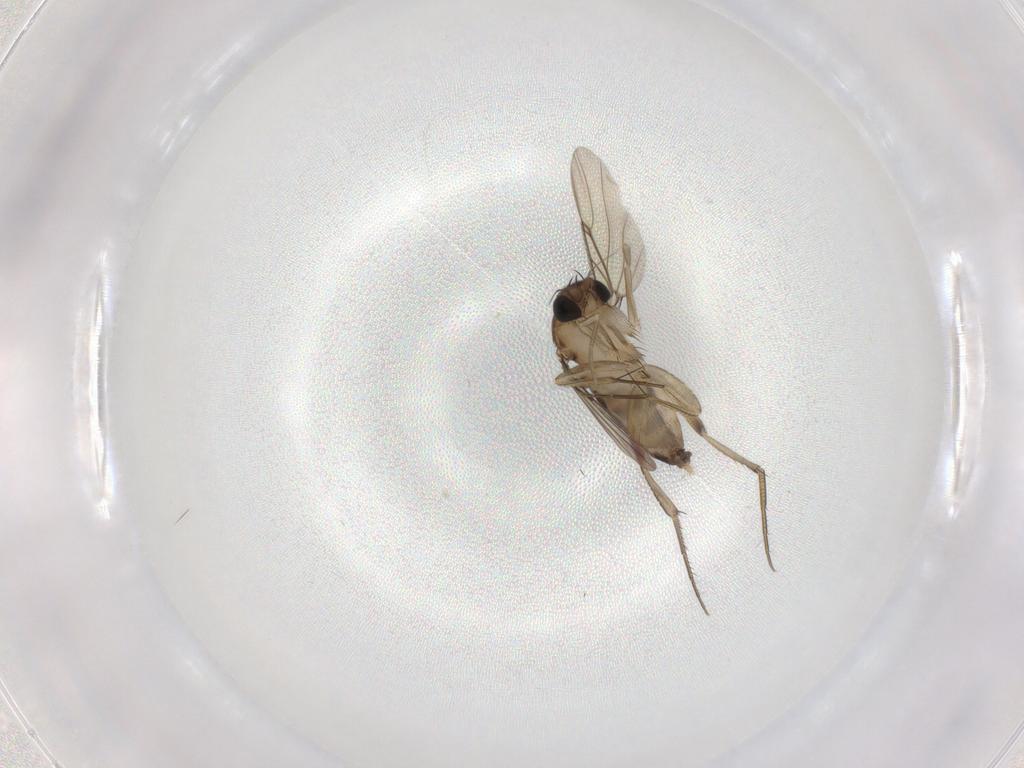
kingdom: Animalia
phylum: Arthropoda
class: Insecta
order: Diptera
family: Phoridae
